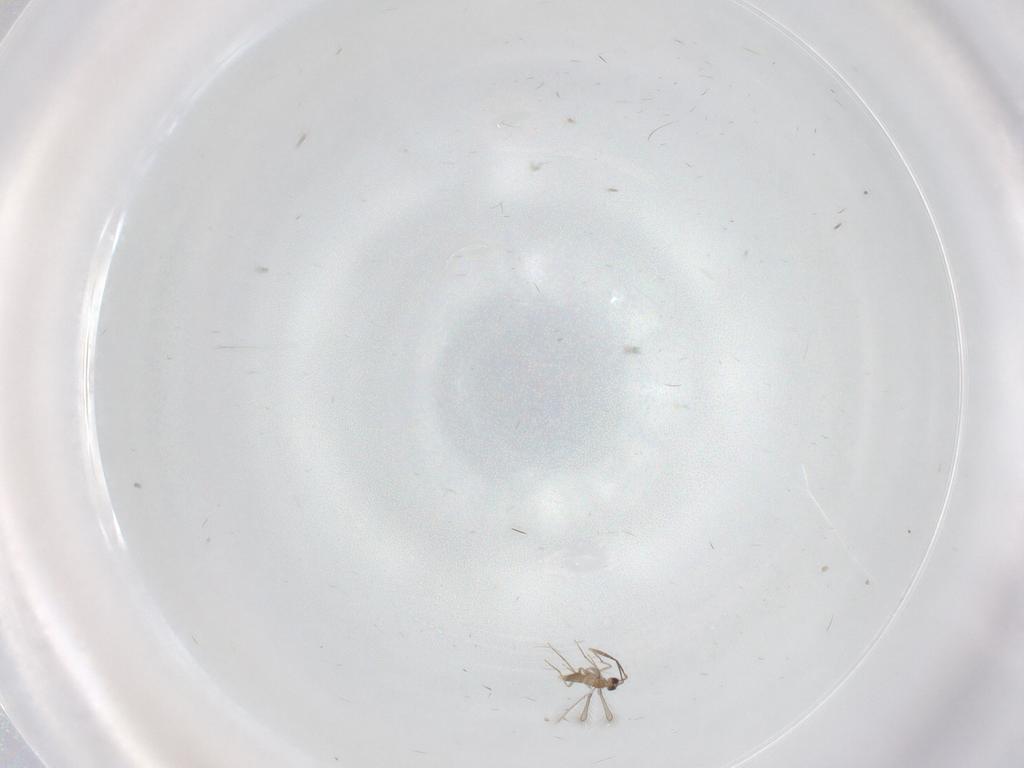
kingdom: Animalia
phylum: Arthropoda
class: Insecta
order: Hymenoptera
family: Mymaridae
